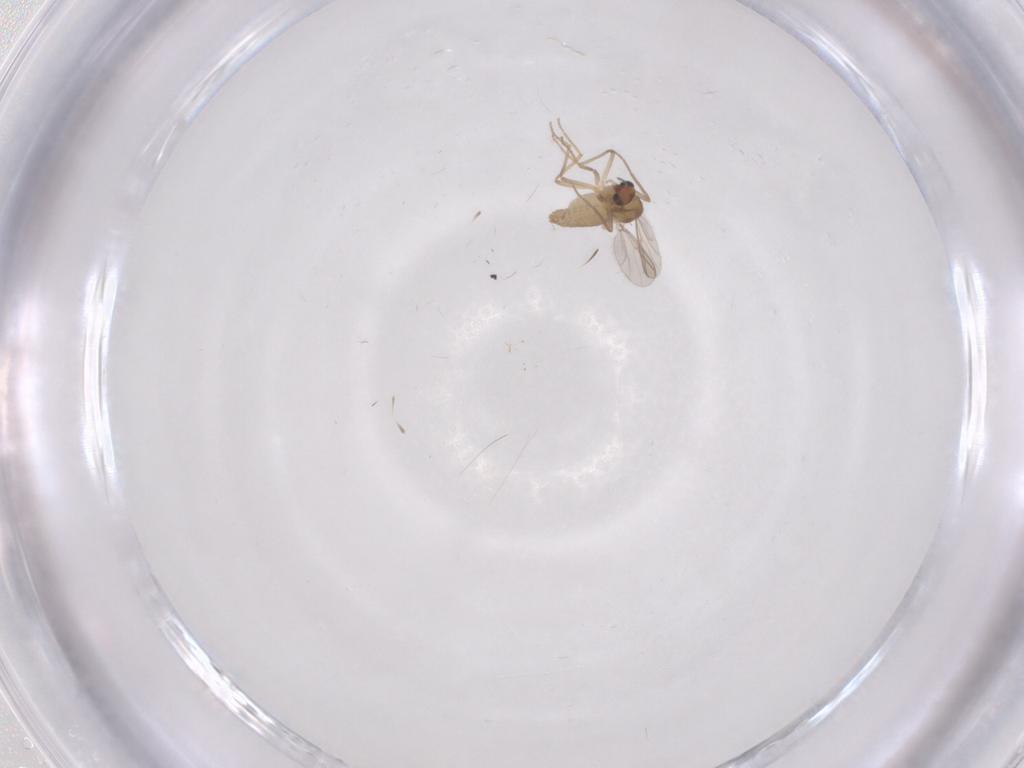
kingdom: Animalia
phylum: Arthropoda
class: Insecta
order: Diptera
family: Chironomidae
